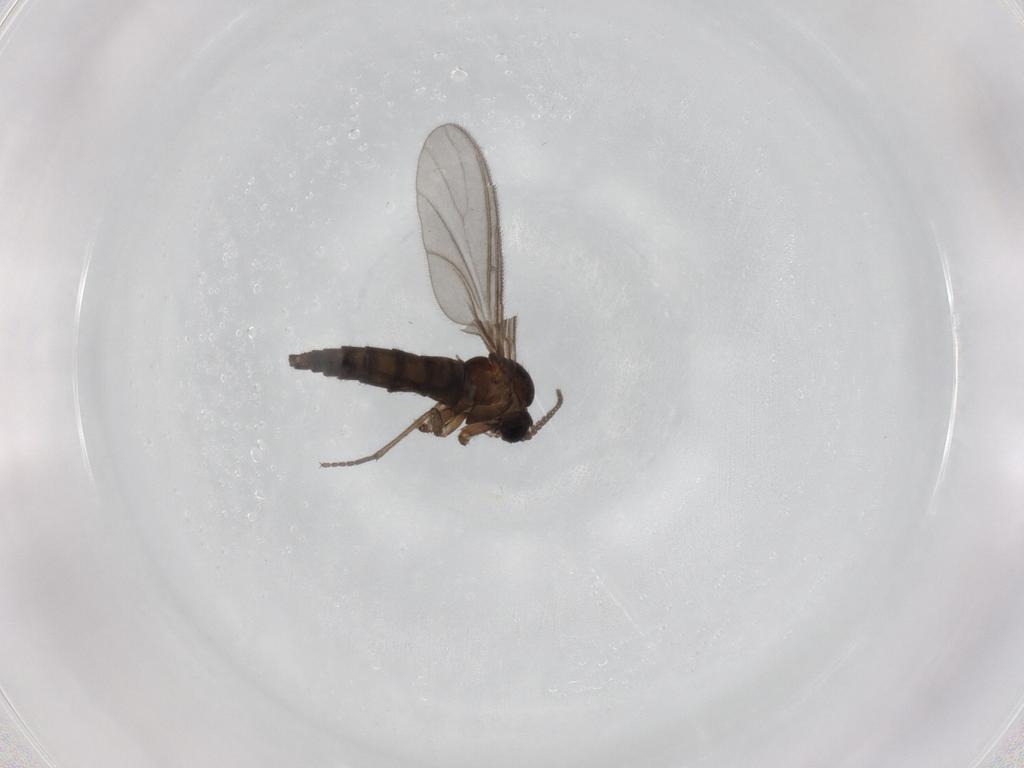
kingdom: Animalia
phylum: Arthropoda
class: Insecta
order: Diptera
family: Sciaridae
